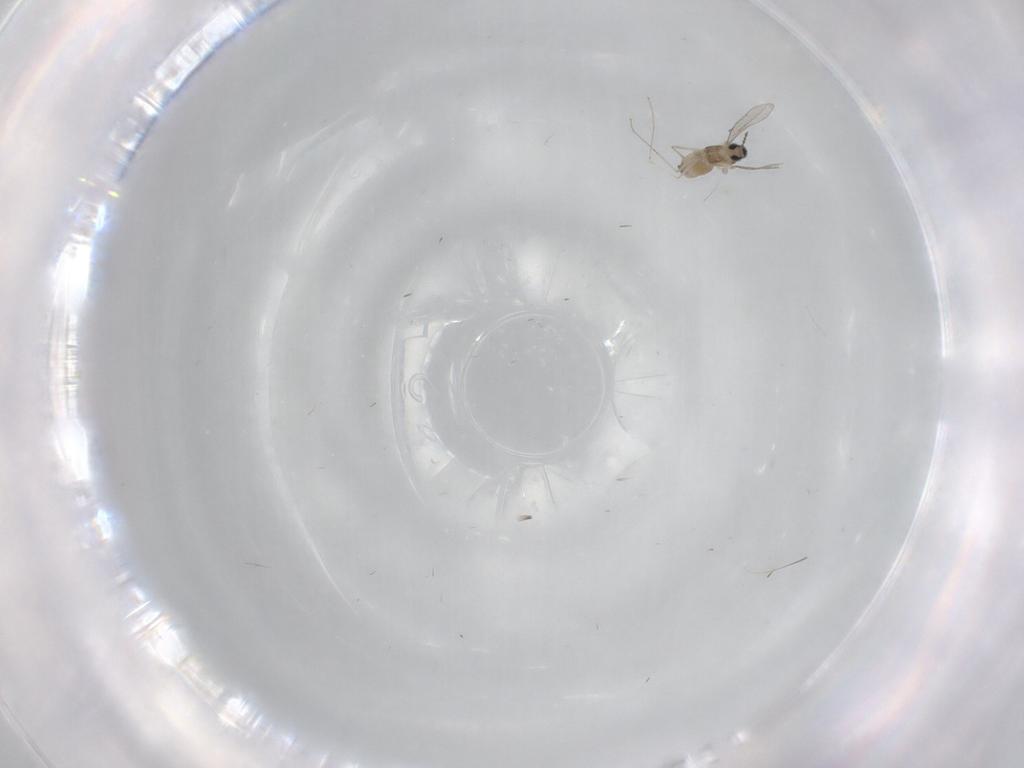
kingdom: Animalia
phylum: Arthropoda
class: Insecta
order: Diptera
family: Cecidomyiidae
